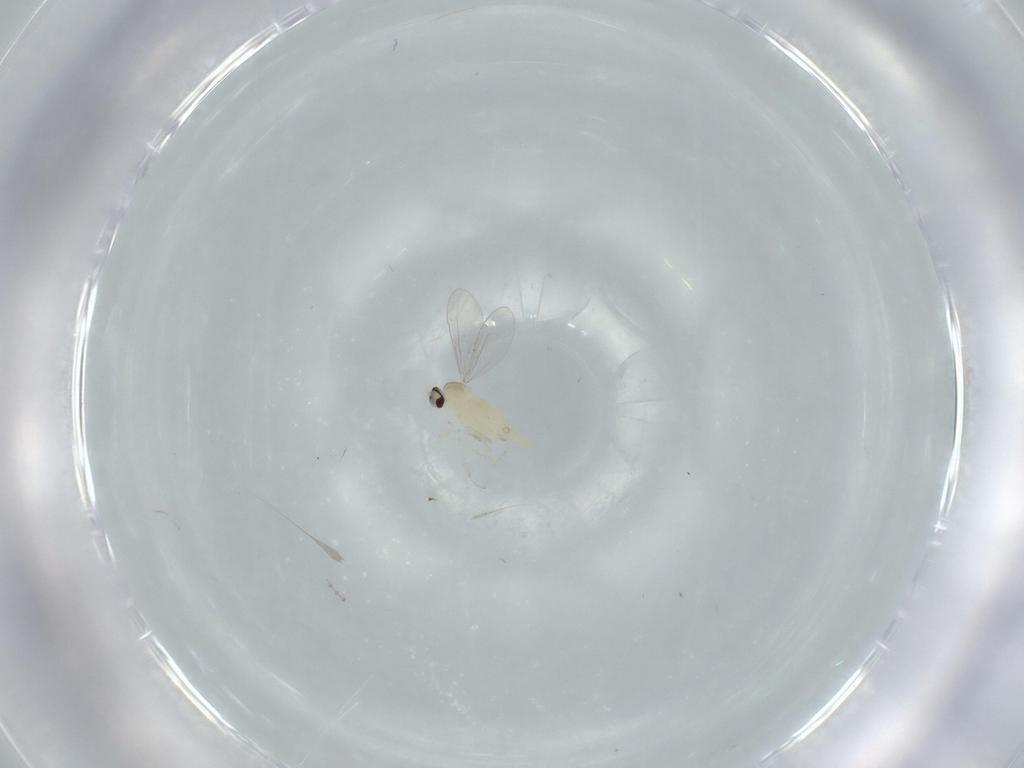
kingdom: Animalia
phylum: Arthropoda
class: Insecta
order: Diptera
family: Cecidomyiidae
